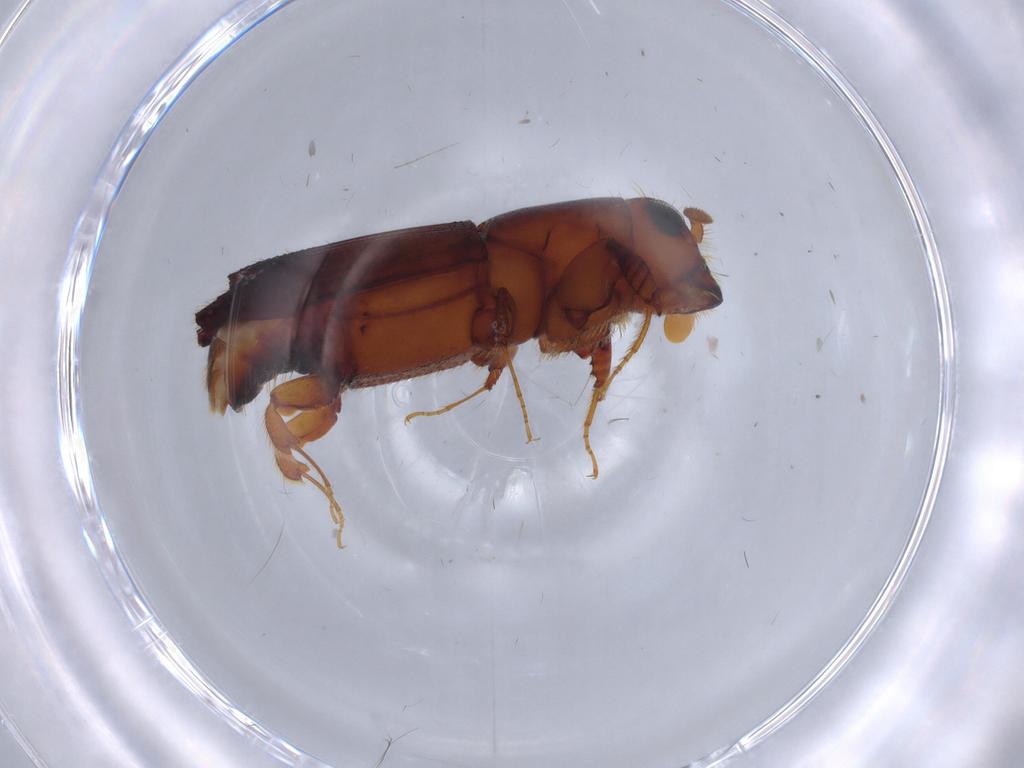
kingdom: Animalia
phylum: Arthropoda
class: Insecta
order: Coleoptera
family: Curculionidae
